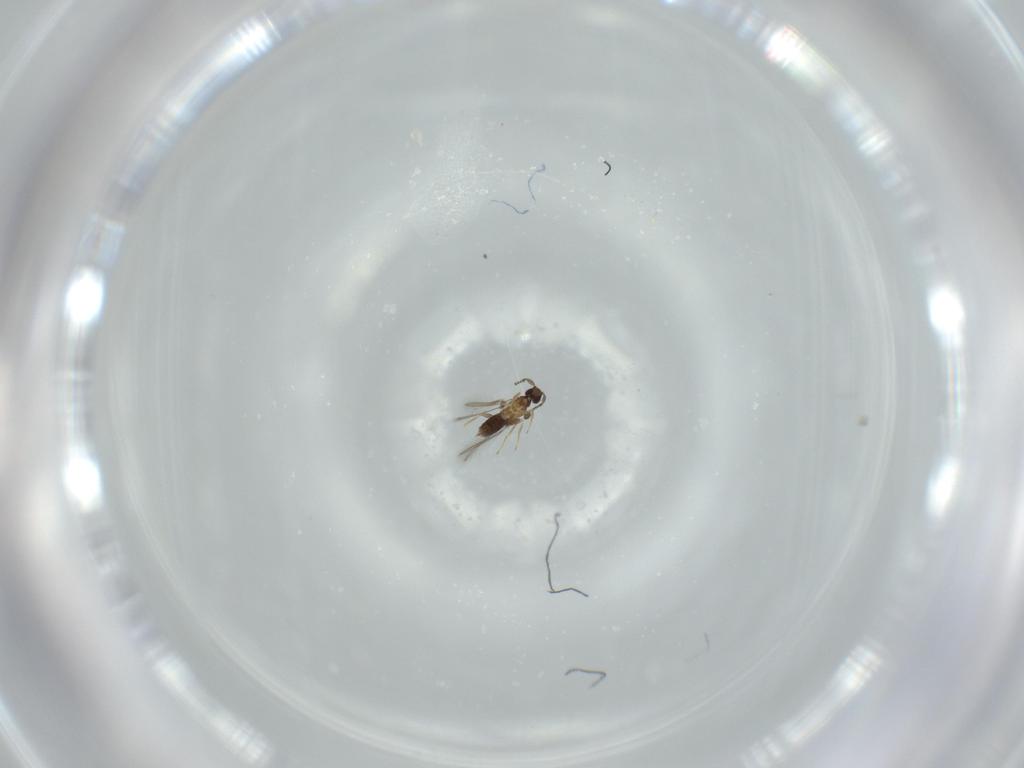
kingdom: Animalia
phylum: Arthropoda
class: Insecta
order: Hymenoptera
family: Mymaridae
